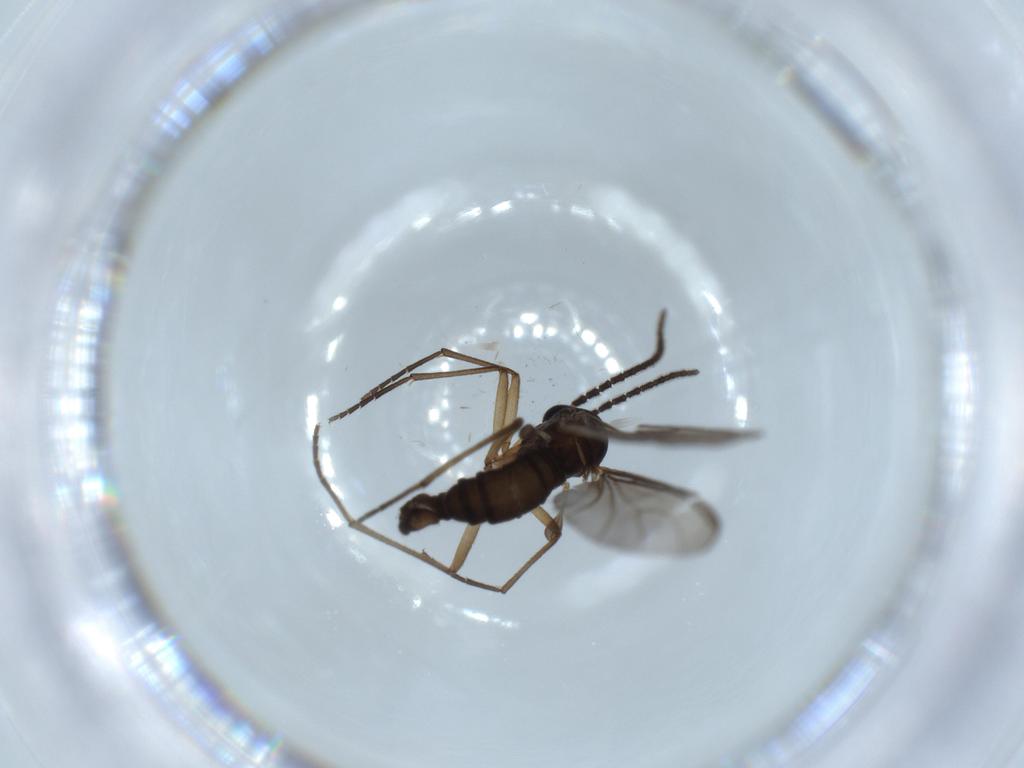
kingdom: Animalia
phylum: Arthropoda
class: Insecta
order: Diptera
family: Sciaridae
